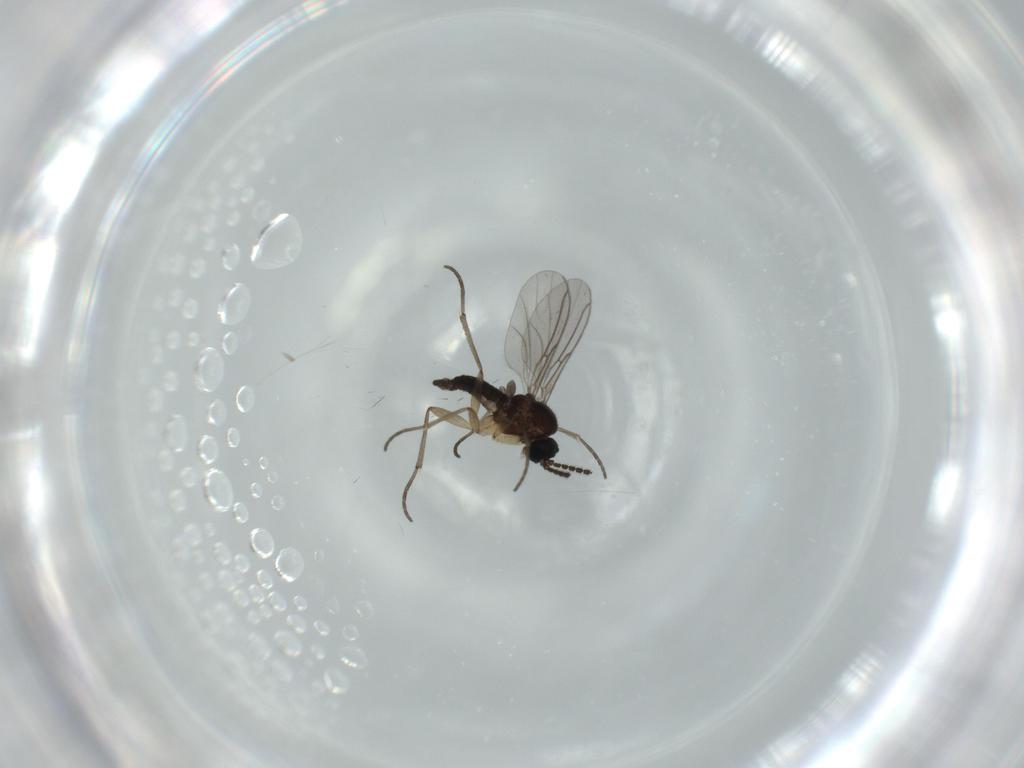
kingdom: Animalia
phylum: Arthropoda
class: Insecta
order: Diptera
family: Sciaridae
